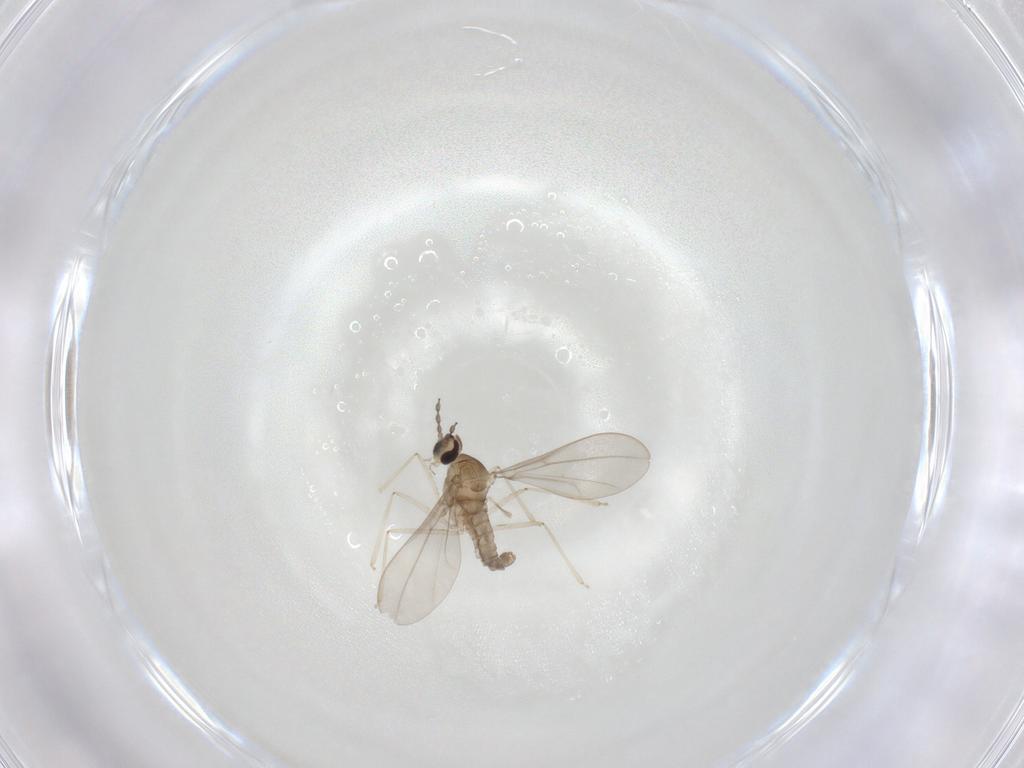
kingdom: Animalia
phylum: Arthropoda
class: Insecta
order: Diptera
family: Cecidomyiidae
